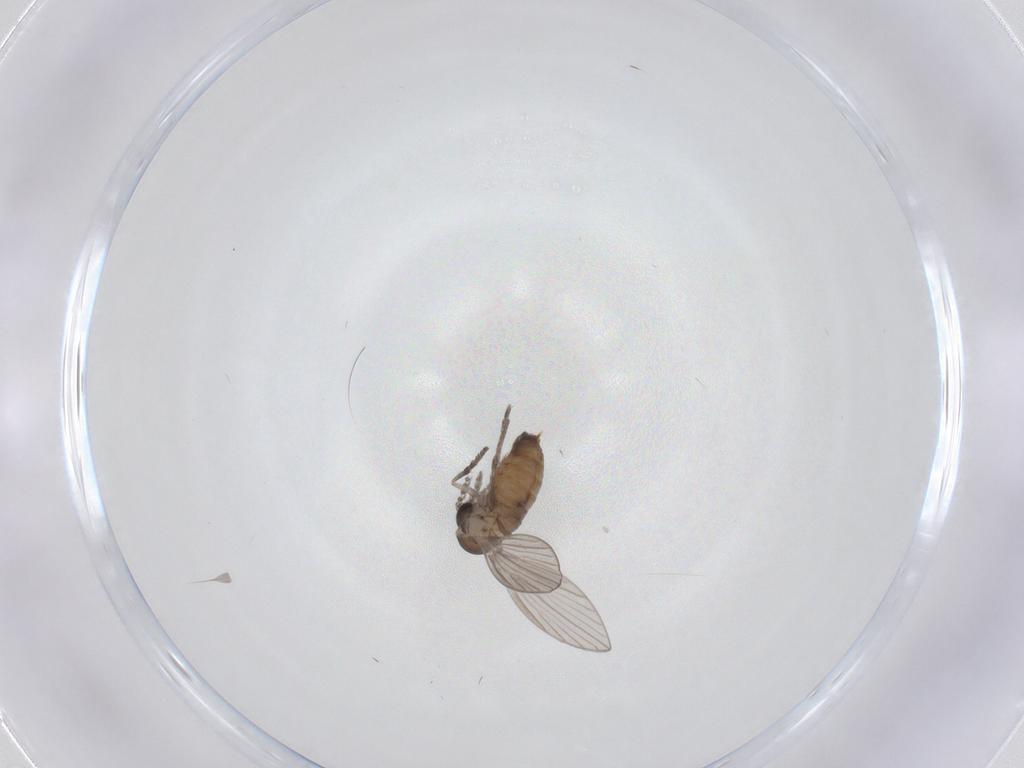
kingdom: Animalia
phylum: Arthropoda
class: Insecta
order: Diptera
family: Psychodidae
